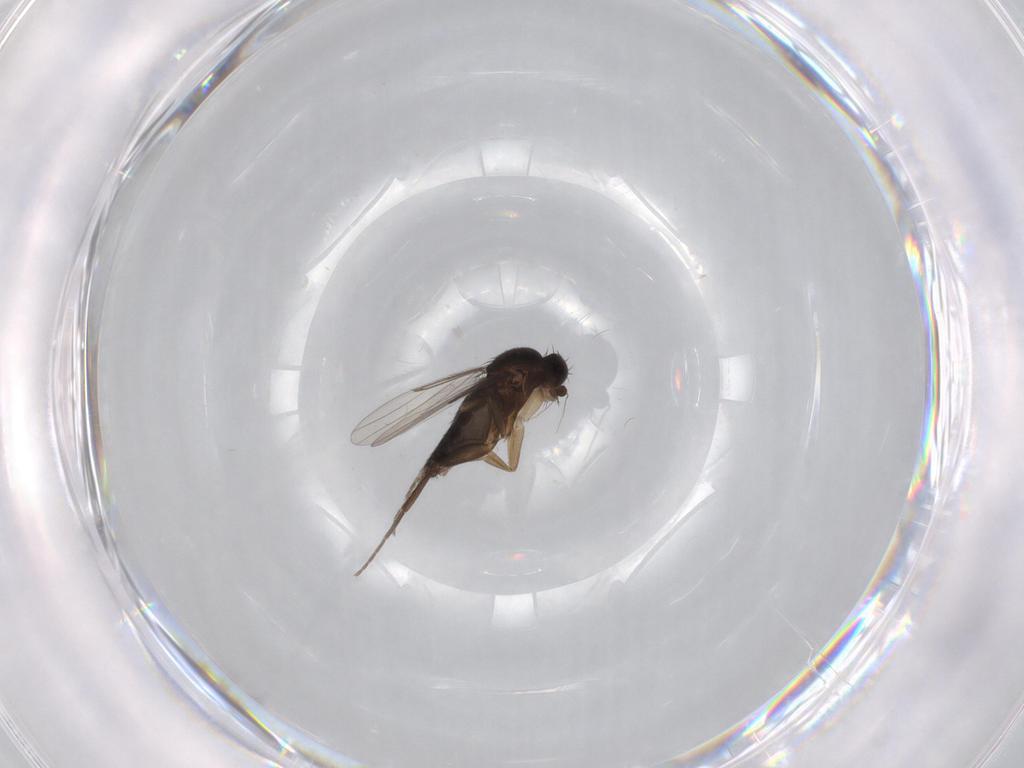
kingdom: Animalia
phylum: Arthropoda
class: Insecta
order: Diptera
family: Phoridae
